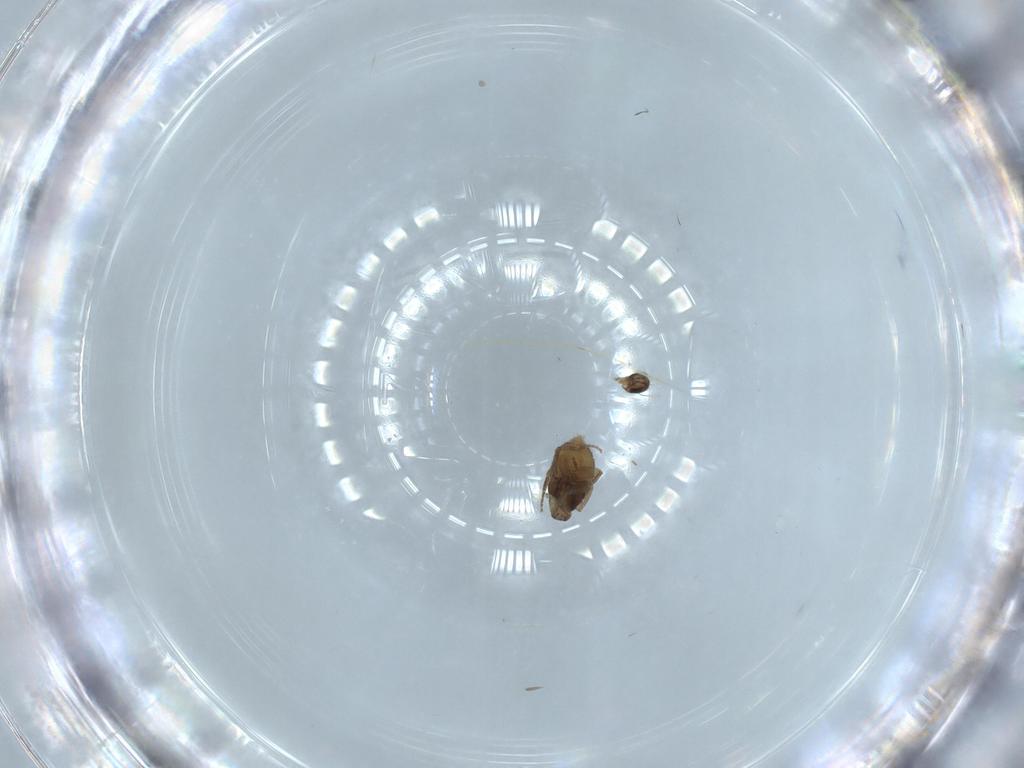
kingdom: Animalia
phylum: Arthropoda
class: Insecta
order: Diptera
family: Phoridae
